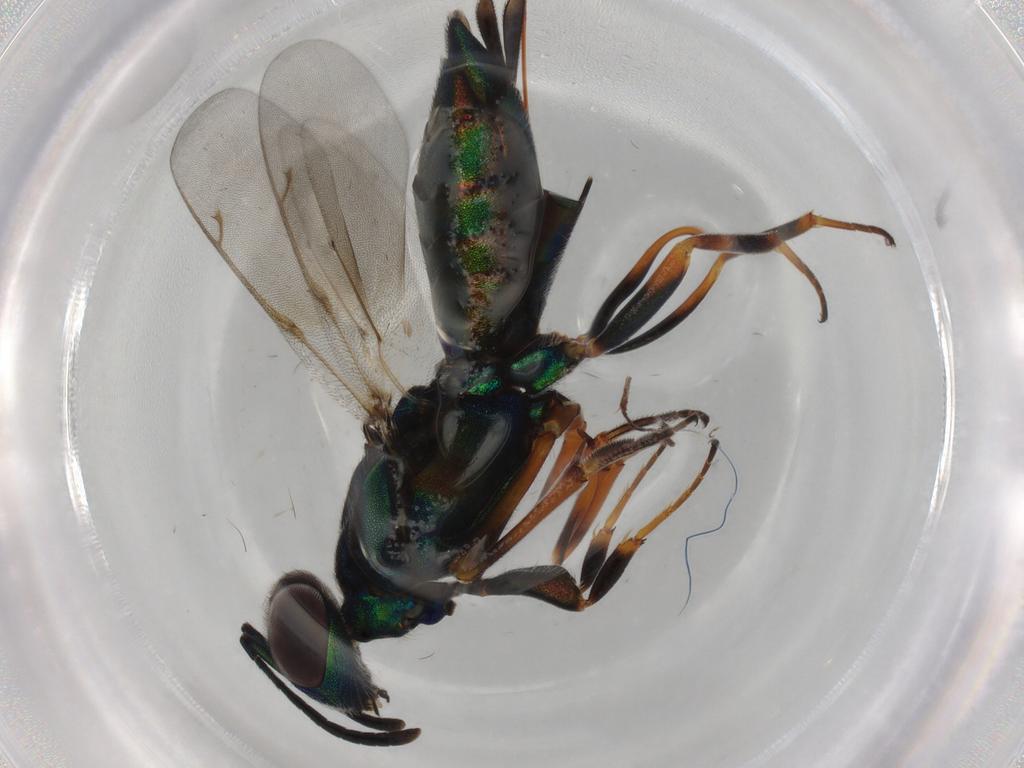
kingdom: Animalia
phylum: Arthropoda
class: Insecta
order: Hymenoptera
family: Eupelmidae
